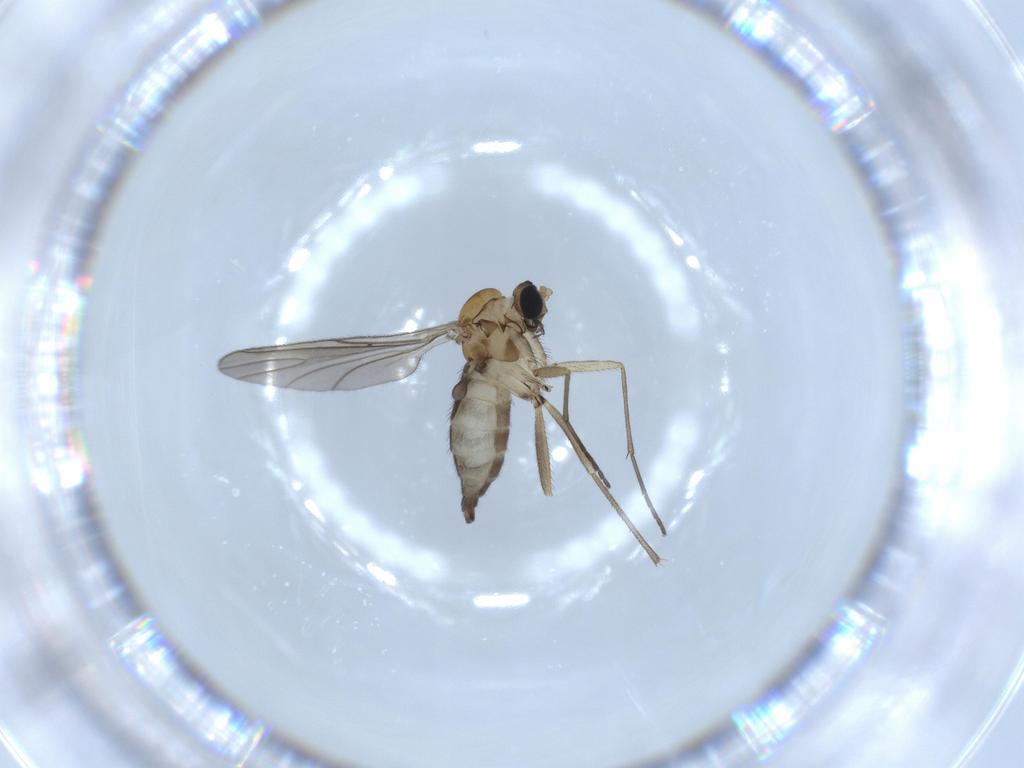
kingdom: Animalia
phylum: Arthropoda
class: Insecta
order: Diptera
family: Sciaridae
